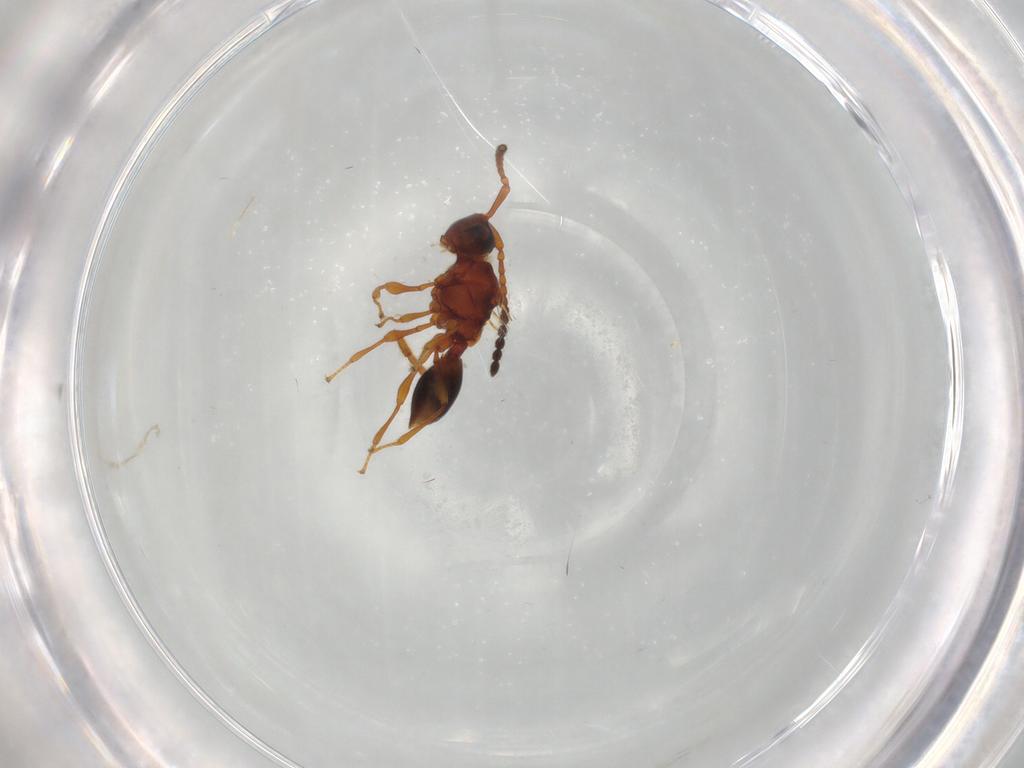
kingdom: Animalia
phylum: Arthropoda
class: Insecta
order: Hymenoptera
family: Diapriidae
